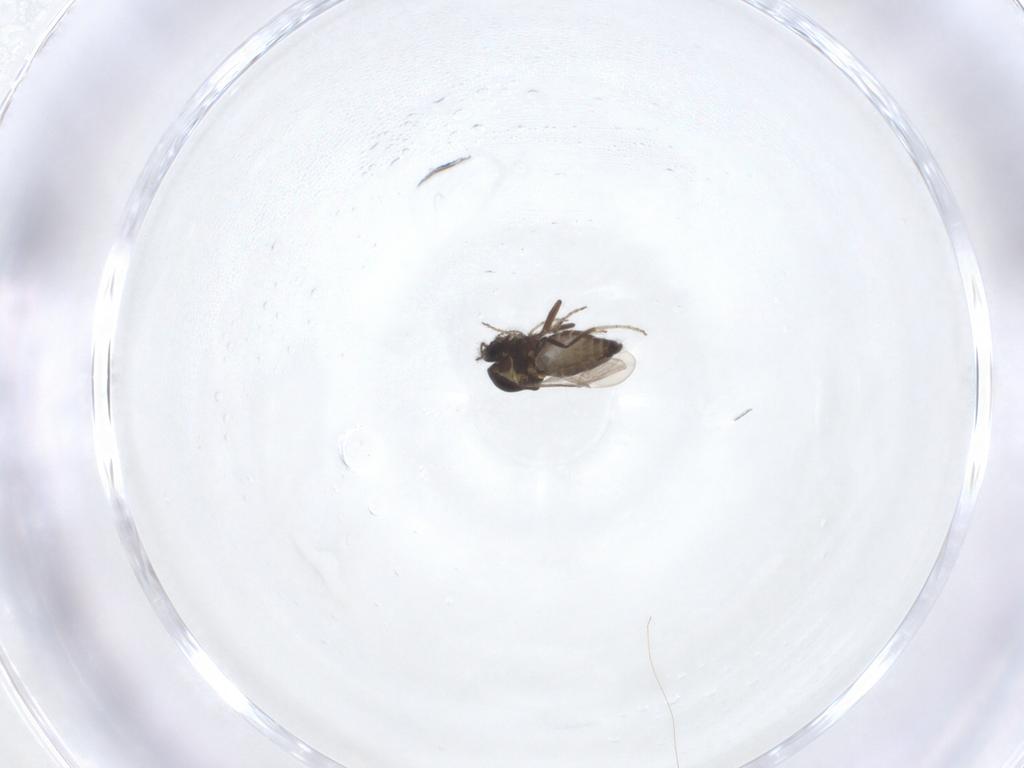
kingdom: Animalia
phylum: Arthropoda
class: Insecta
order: Diptera
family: Ceratopogonidae
